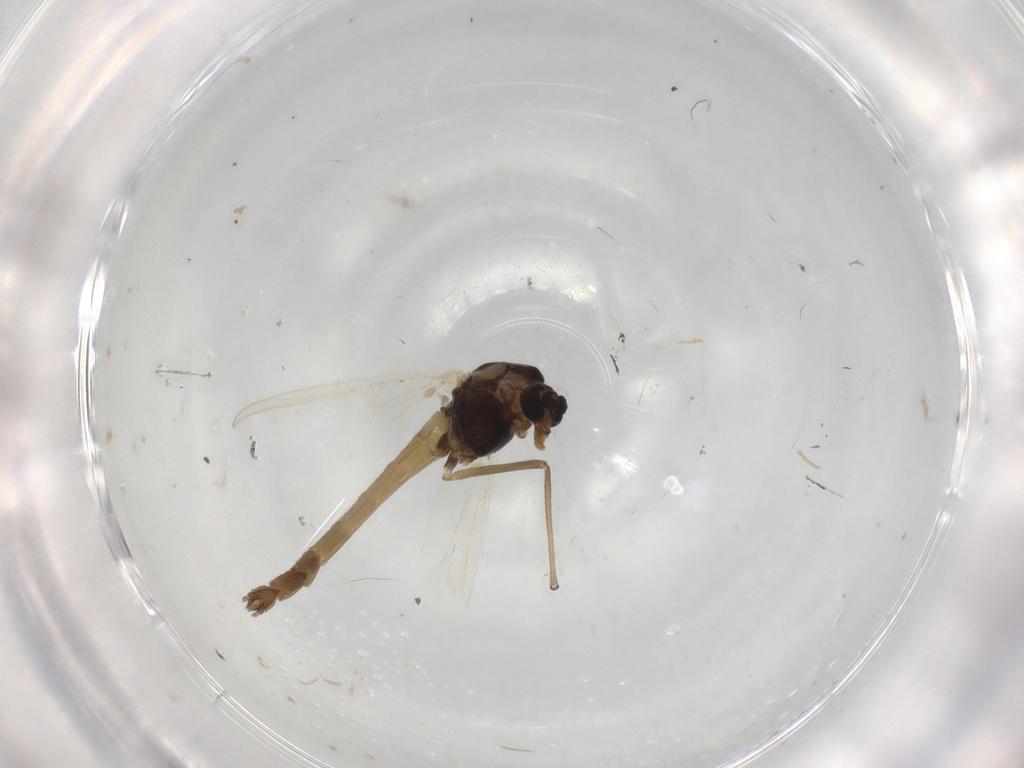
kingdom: Animalia
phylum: Arthropoda
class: Insecta
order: Diptera
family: Chironomidae
